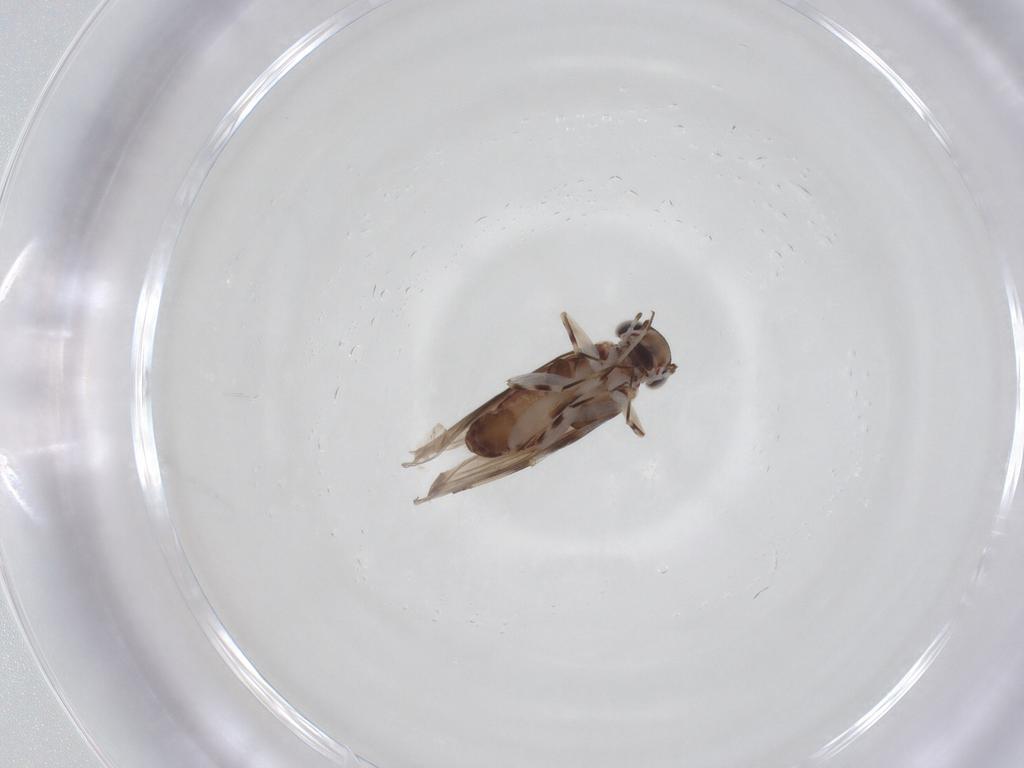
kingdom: Animalia
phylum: Arthropoda
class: Insecta
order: Psocodea
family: Amphientomidae
